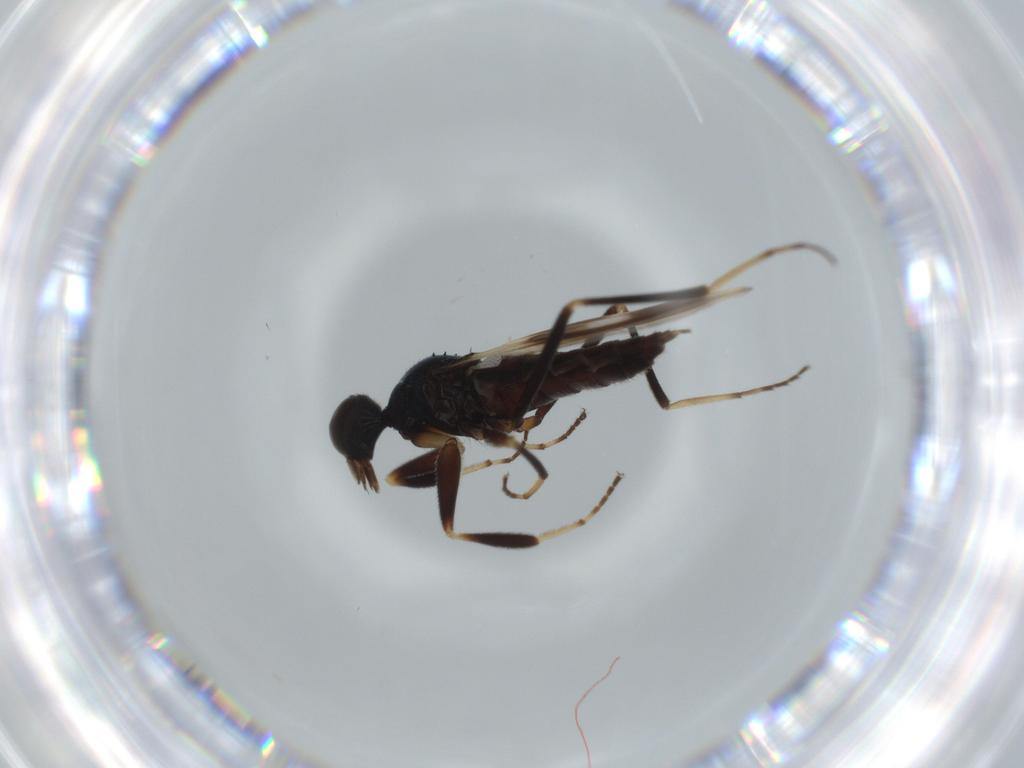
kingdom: Animalia
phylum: Arthropoda
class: Insecta
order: Diptera
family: Hybotidae
